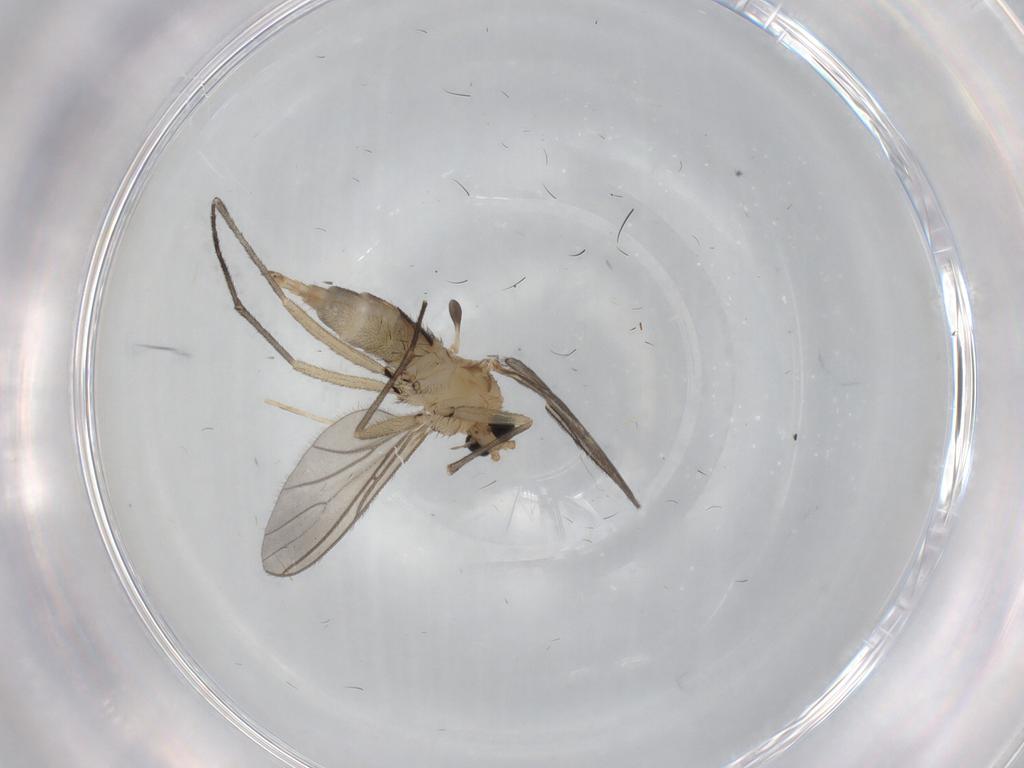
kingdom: Animalia
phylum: Arthropoda
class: Insecta
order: Diptera
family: Sciaridae
